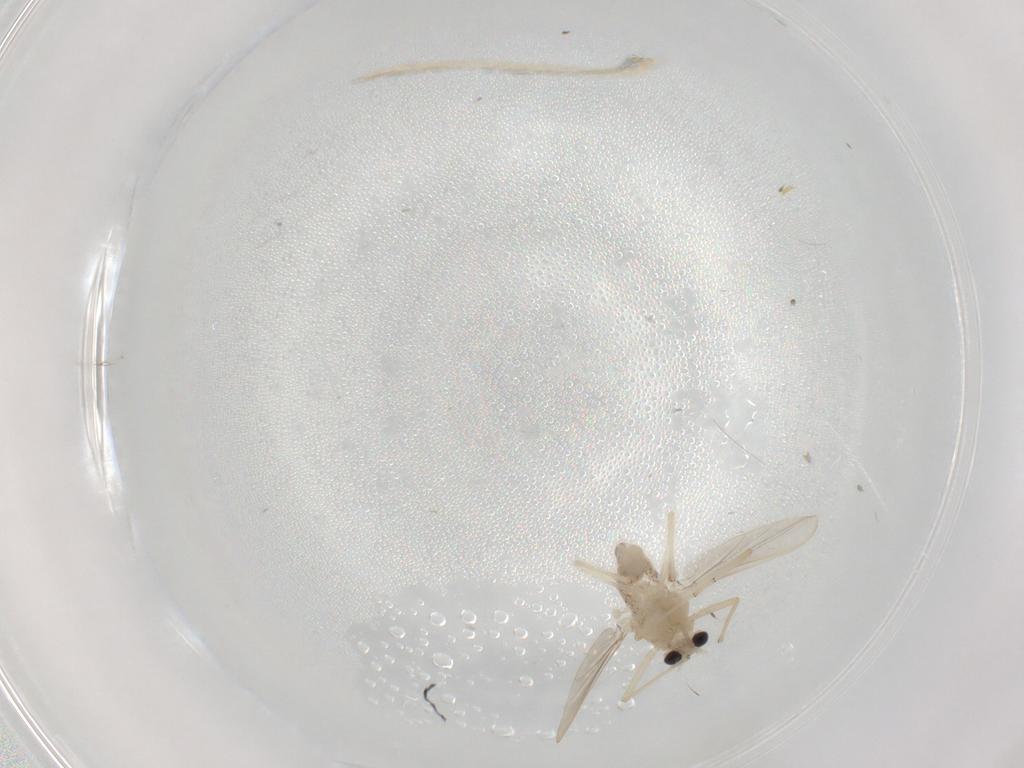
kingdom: Animalia
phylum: Arthropoda
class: Insecta
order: Diptera
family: Chironomidae
